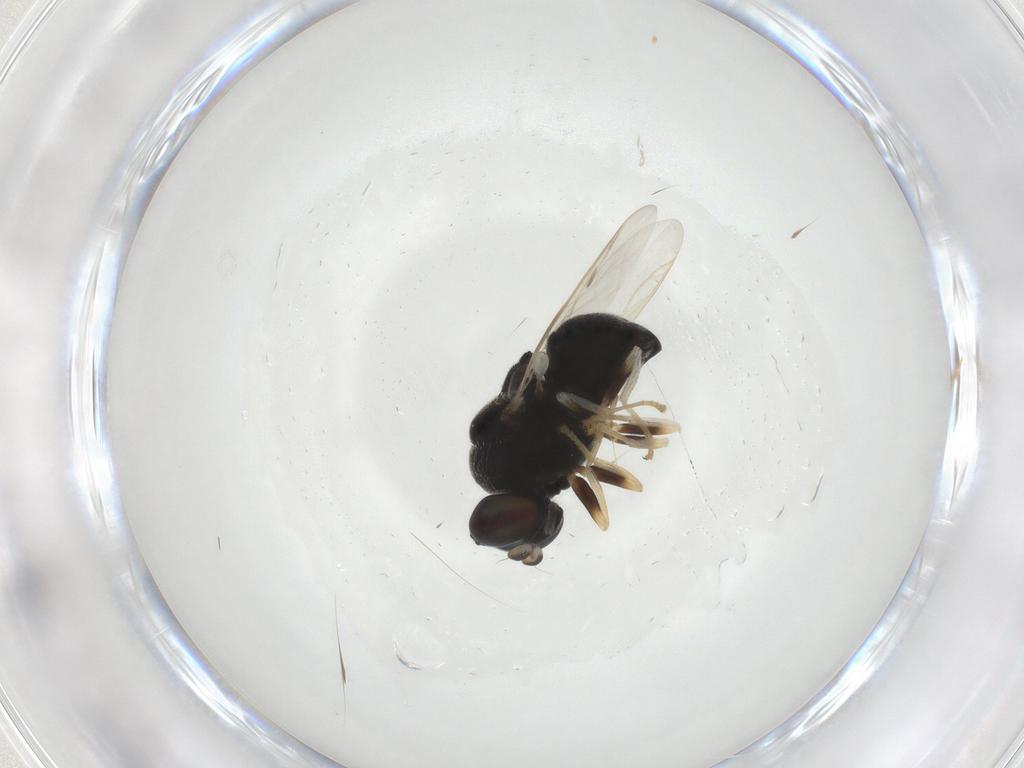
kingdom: Animalia
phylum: Arthropoda
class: Insecta
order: Diptera
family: Stratiomyidae
